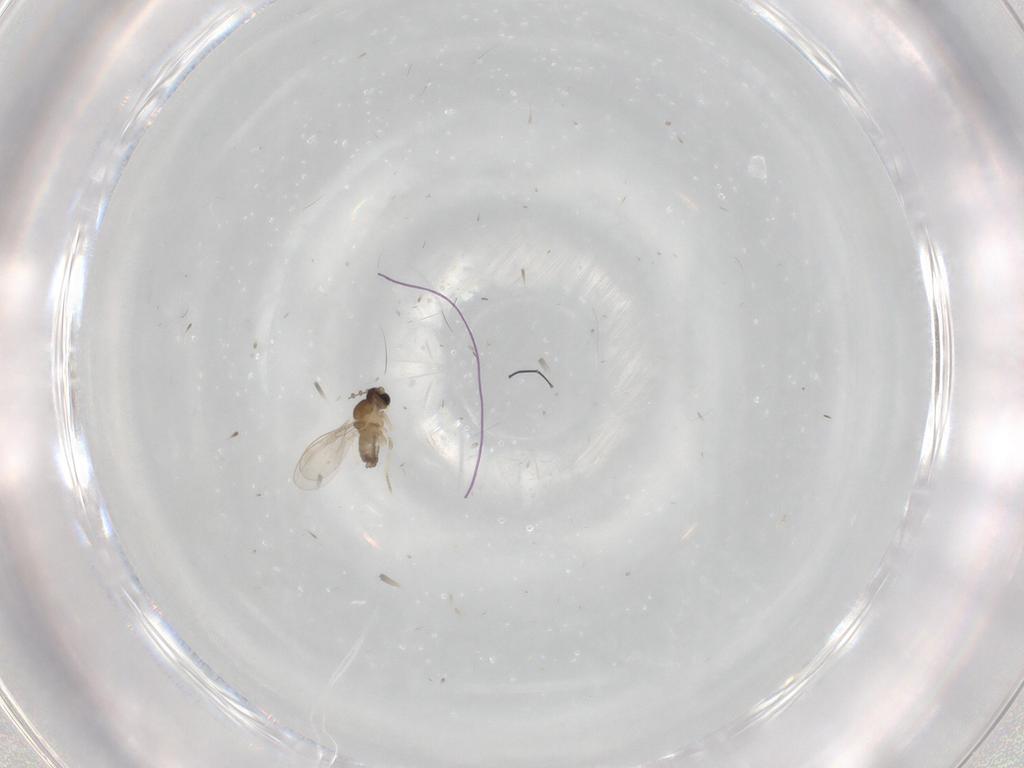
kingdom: Animalia
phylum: Arthropoda
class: Insecta
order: Diptera
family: Cecidomyiidae
